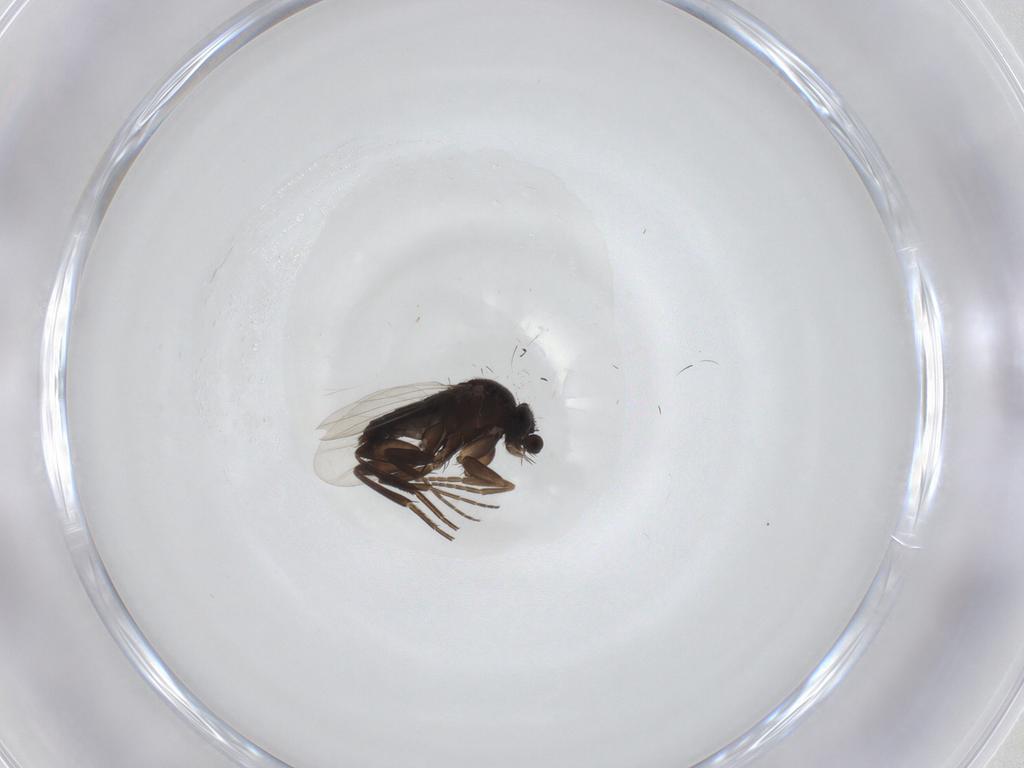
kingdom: Animalia
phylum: Arthropoda
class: Insecta
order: Diptera
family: Phoridae
